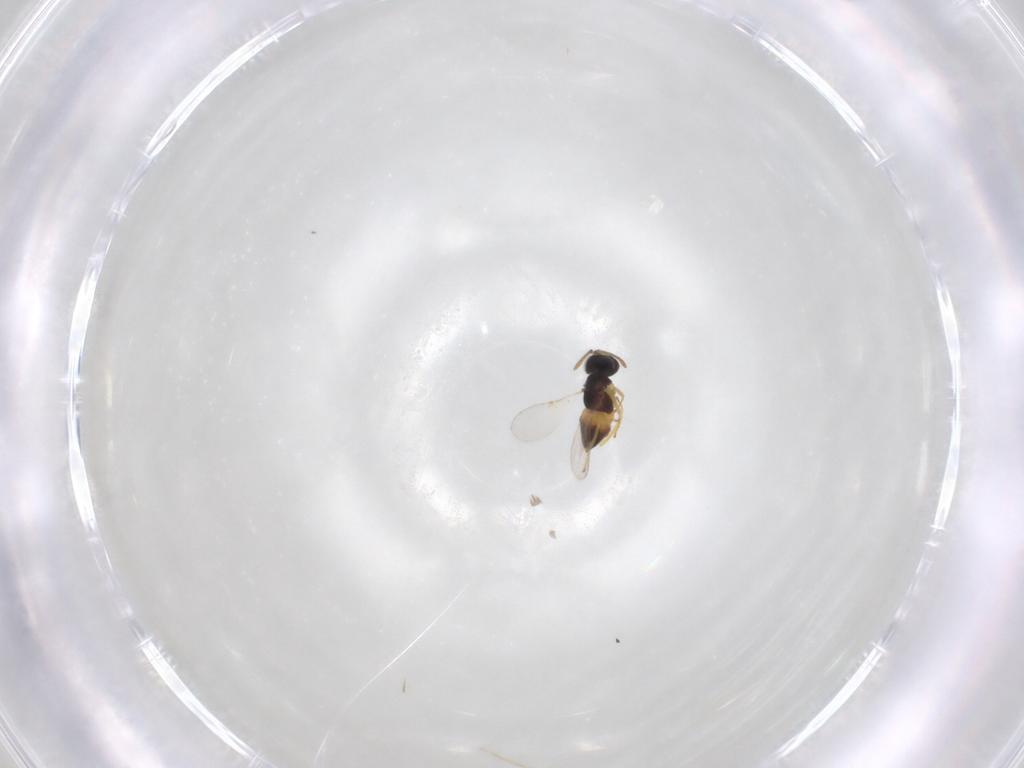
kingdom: Animalia
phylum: Arthropoda
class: Insecta
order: Hymenoptera
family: Encyrtidae
